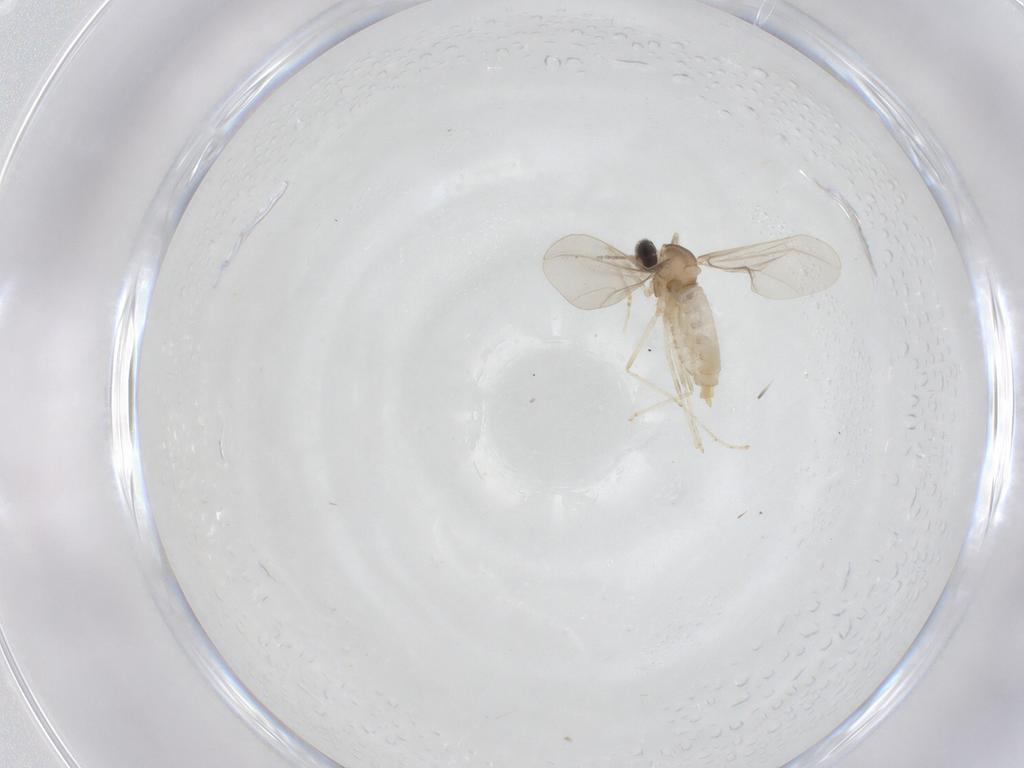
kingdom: Animalia
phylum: Arthropoda
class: Insecta
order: Diptera
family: Cecidomyiidae
